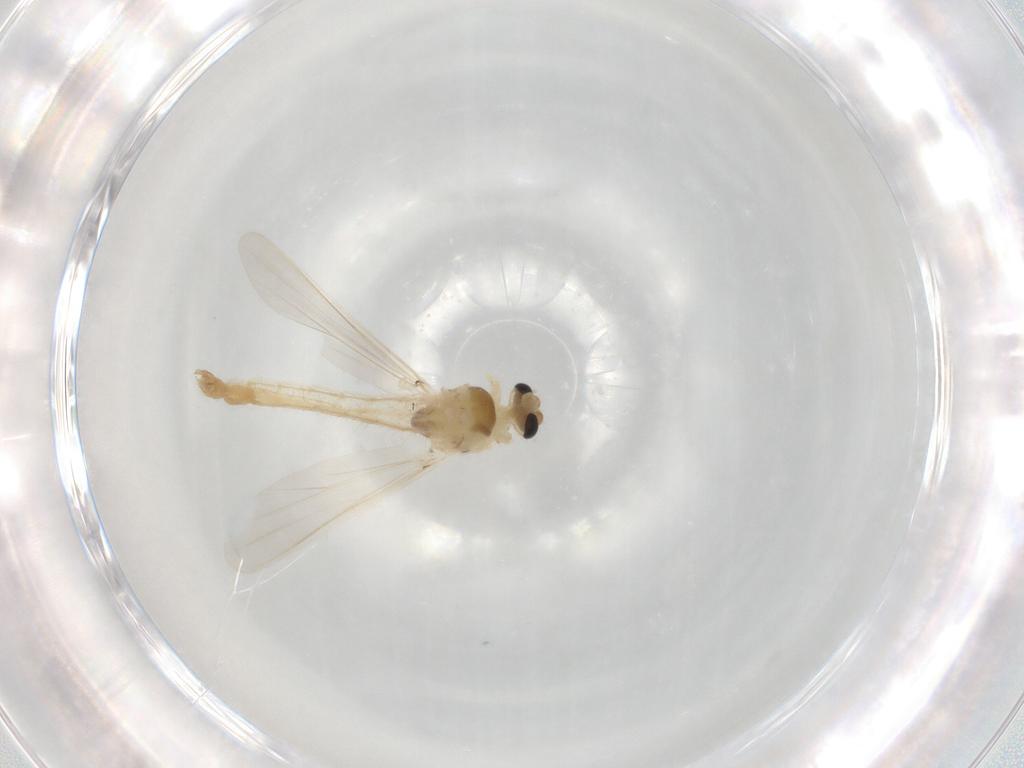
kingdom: Animalia
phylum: Arthropoda
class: Insecta
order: Diptera
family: Chironomidae
